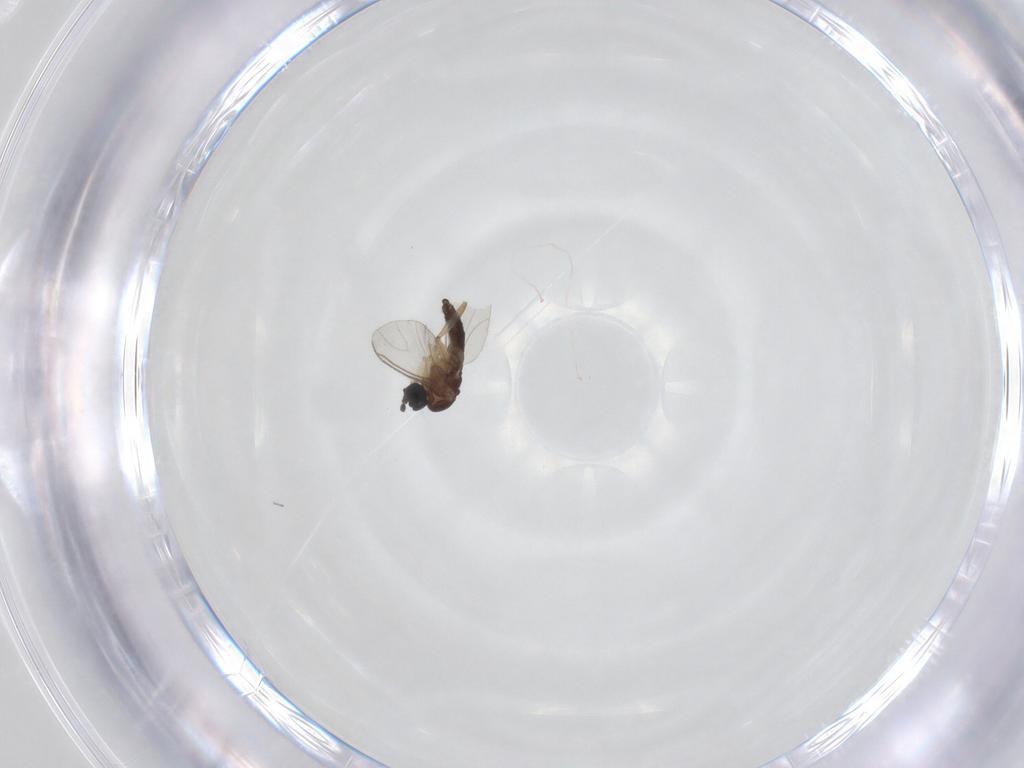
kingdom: Animalia
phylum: Arthropoda
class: Insecta
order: Diptera
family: Sciaridae
